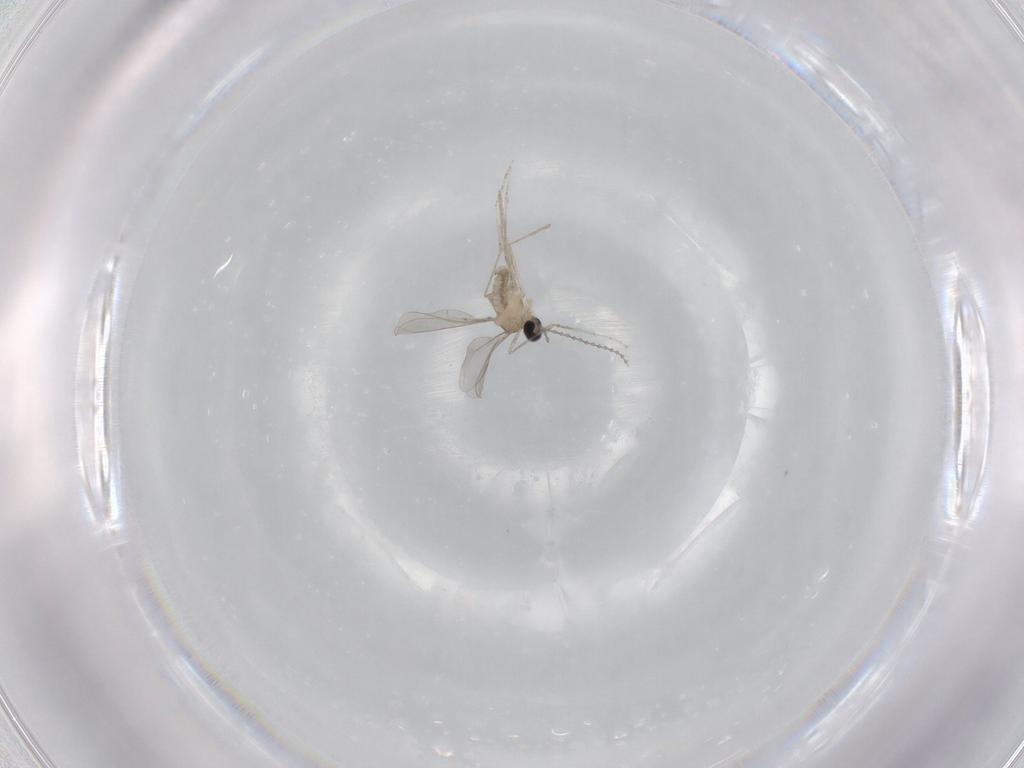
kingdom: Animalia
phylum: Arthropoda
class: Insecta
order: Diptera
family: Cecidomyiidae
